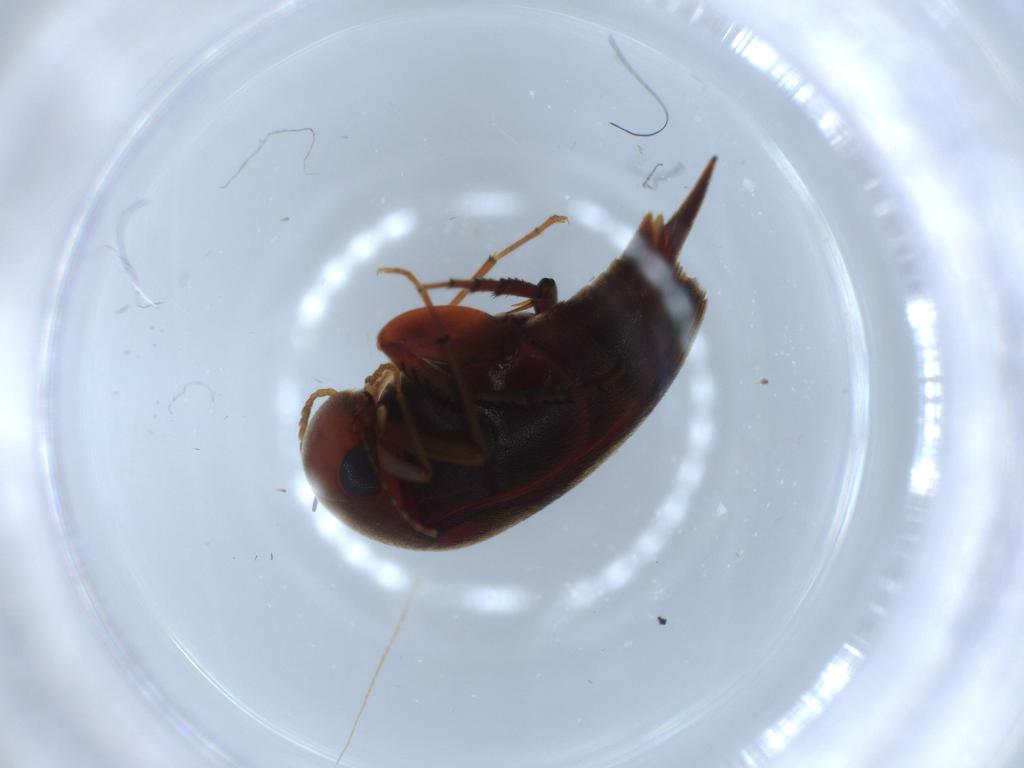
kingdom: Animalia
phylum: Arthropoda
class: Insecta
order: Coleoptera
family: Mordellidae
